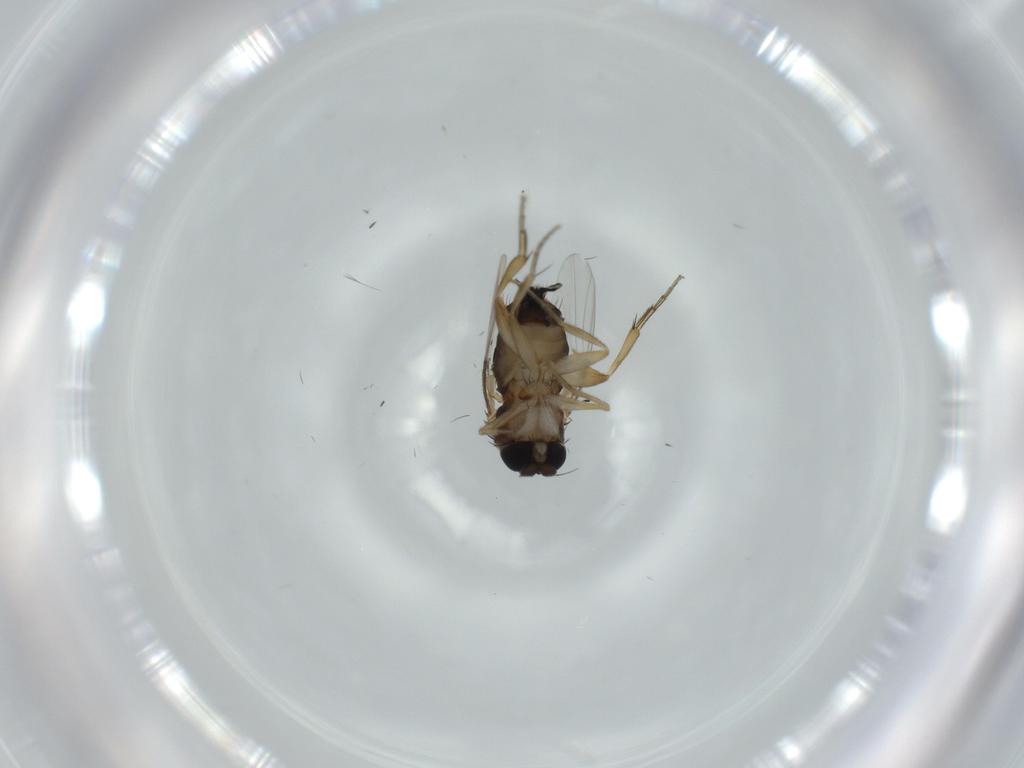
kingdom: Animalia
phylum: Arthropoda
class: Insecta
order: Diptera
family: Phoridae
